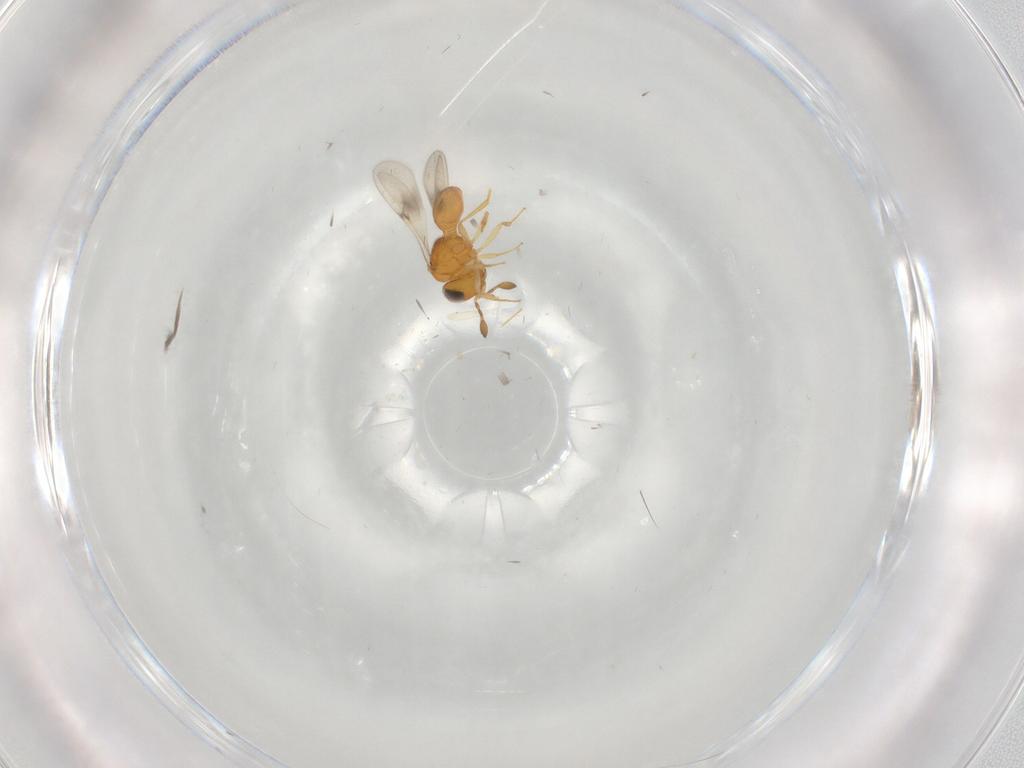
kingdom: Animalia
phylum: Arthropoda
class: Insecta
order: Hymenoptera
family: Scelionidae
